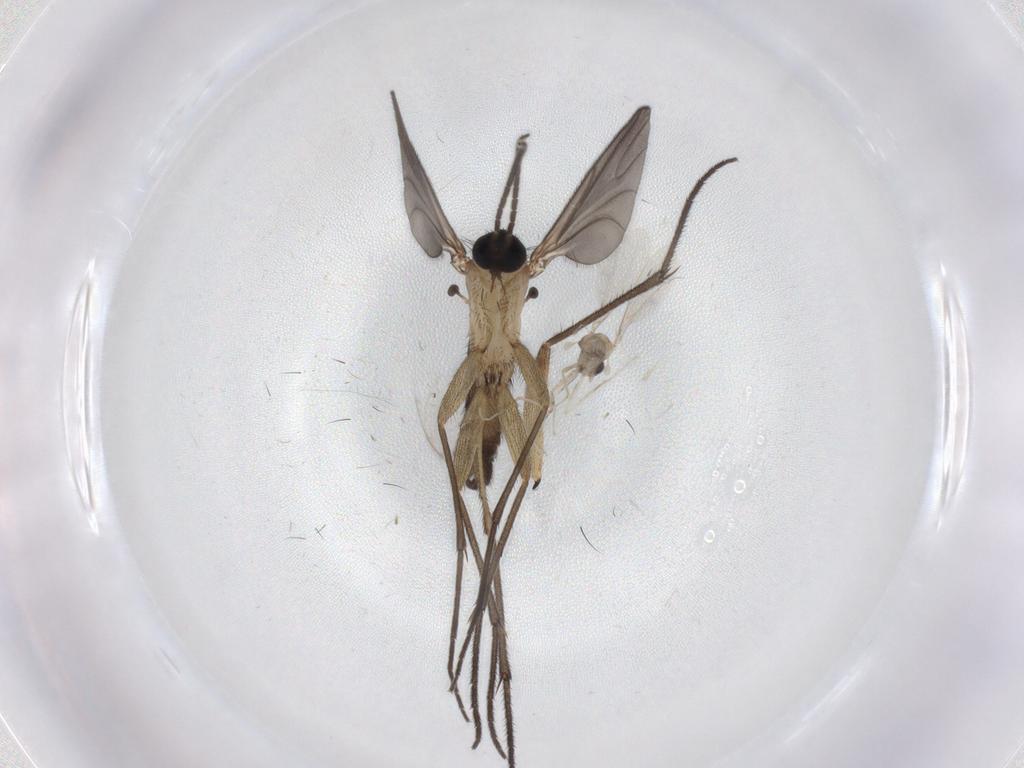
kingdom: Animalia
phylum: Arthropoda
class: Insecta
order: Diptera
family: Sciaridae
